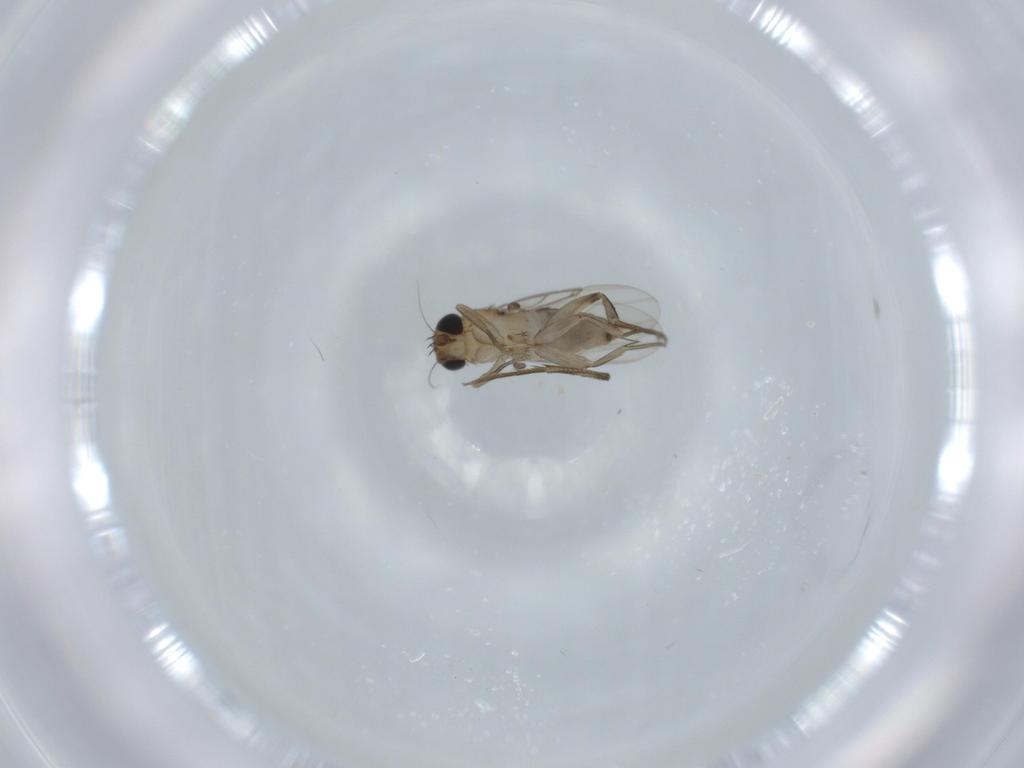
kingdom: Animalia
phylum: Arthropoda
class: Insecta
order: Diptera
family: Phoridae
